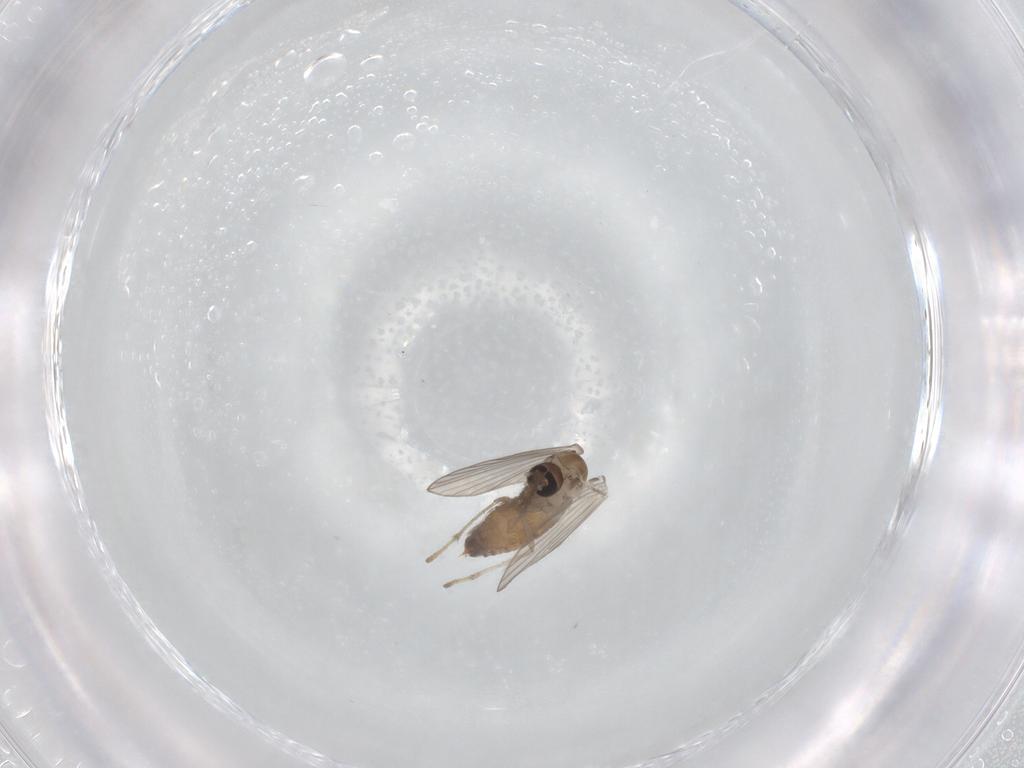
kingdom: Animalia
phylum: Arthropoda
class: Insecta
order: Diptera
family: Psychodidae
